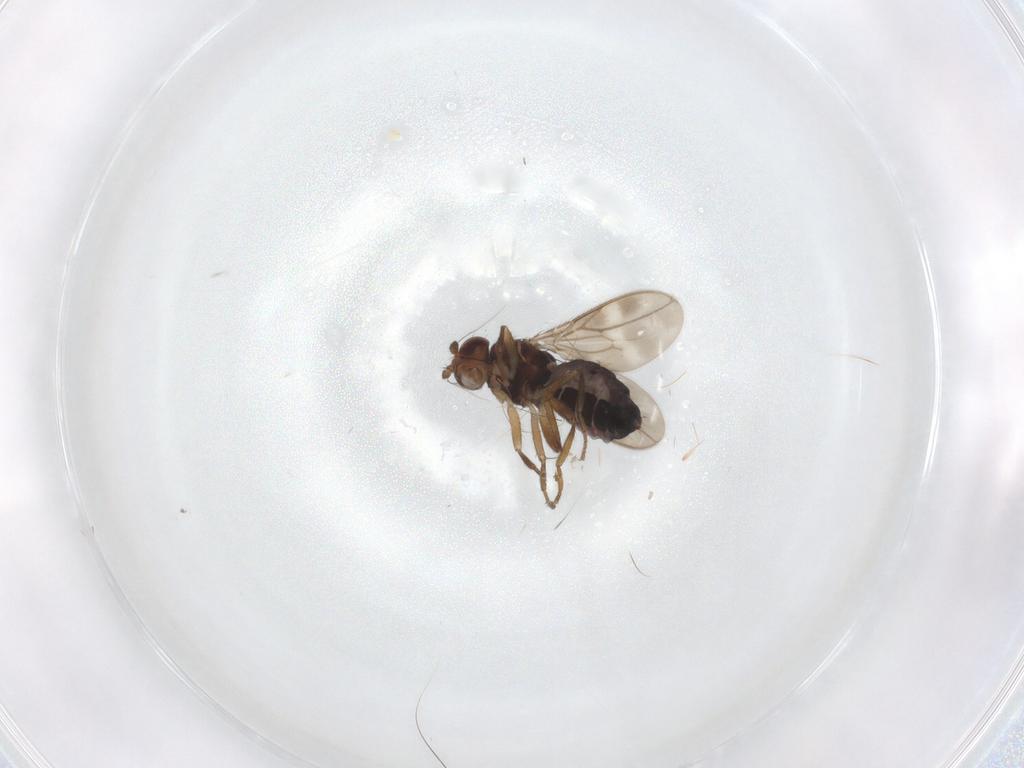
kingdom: Animalia
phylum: Arthropoda
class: Insecta
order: Diptera
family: Sphaeroceridae
